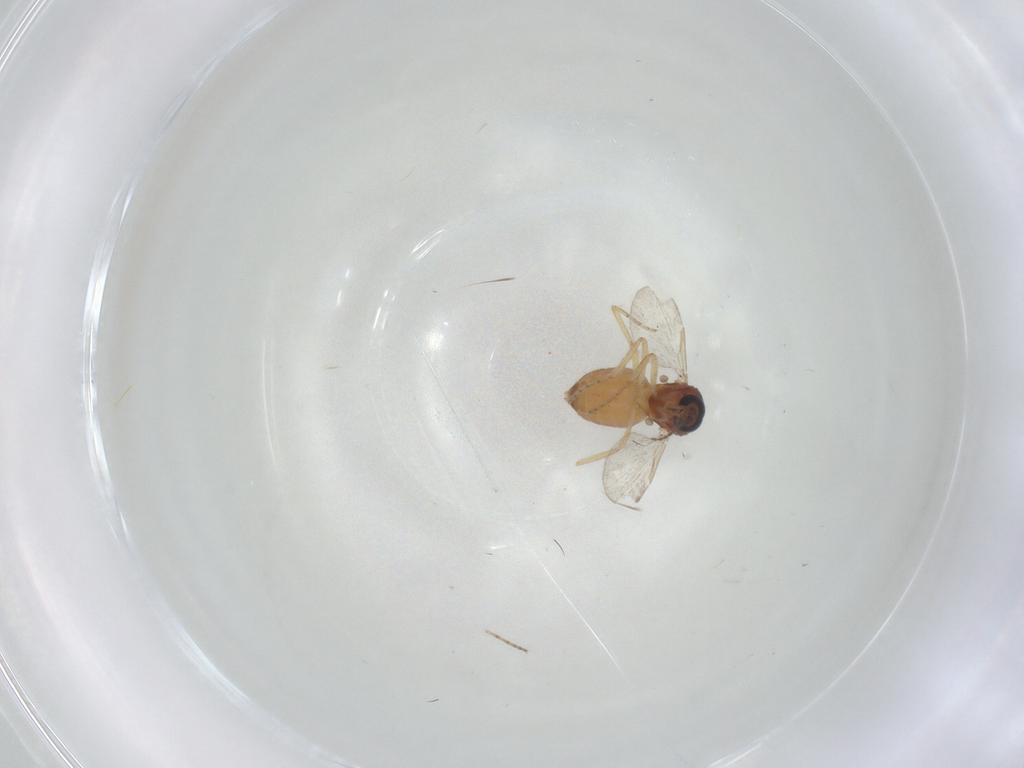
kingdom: Animalia
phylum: Arthropoda
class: Insecta
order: Diptera
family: Ceratopogonidae
